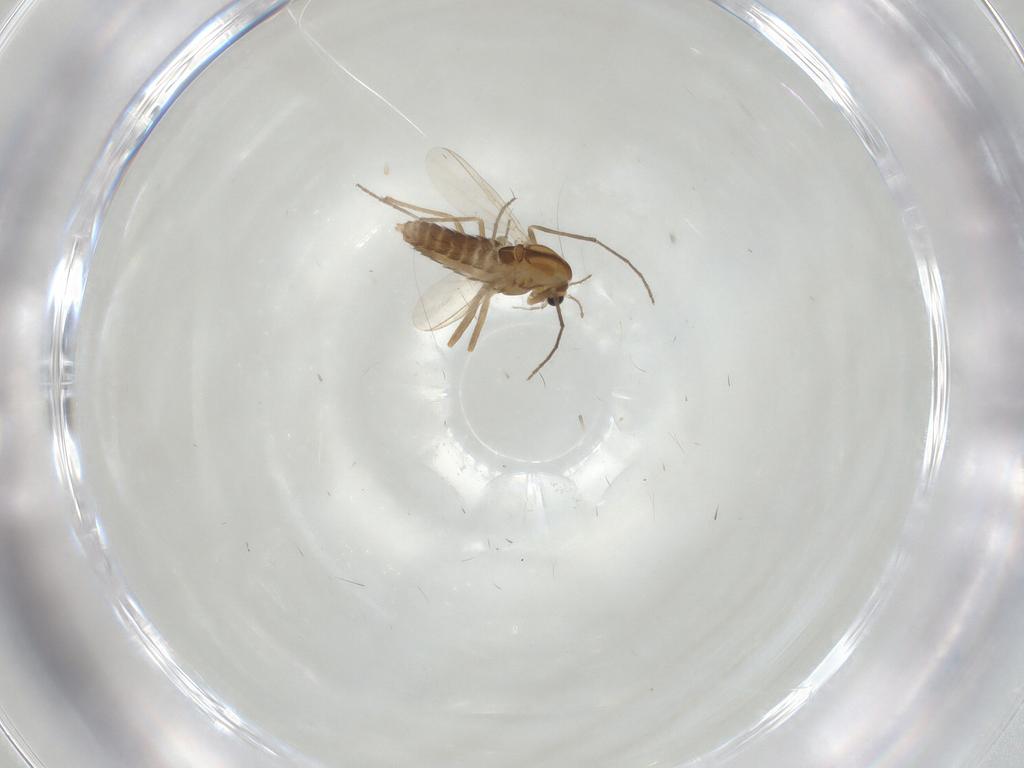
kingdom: Animalia
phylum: Arthropoda
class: Insecta
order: Diptera
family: Chironomidae
